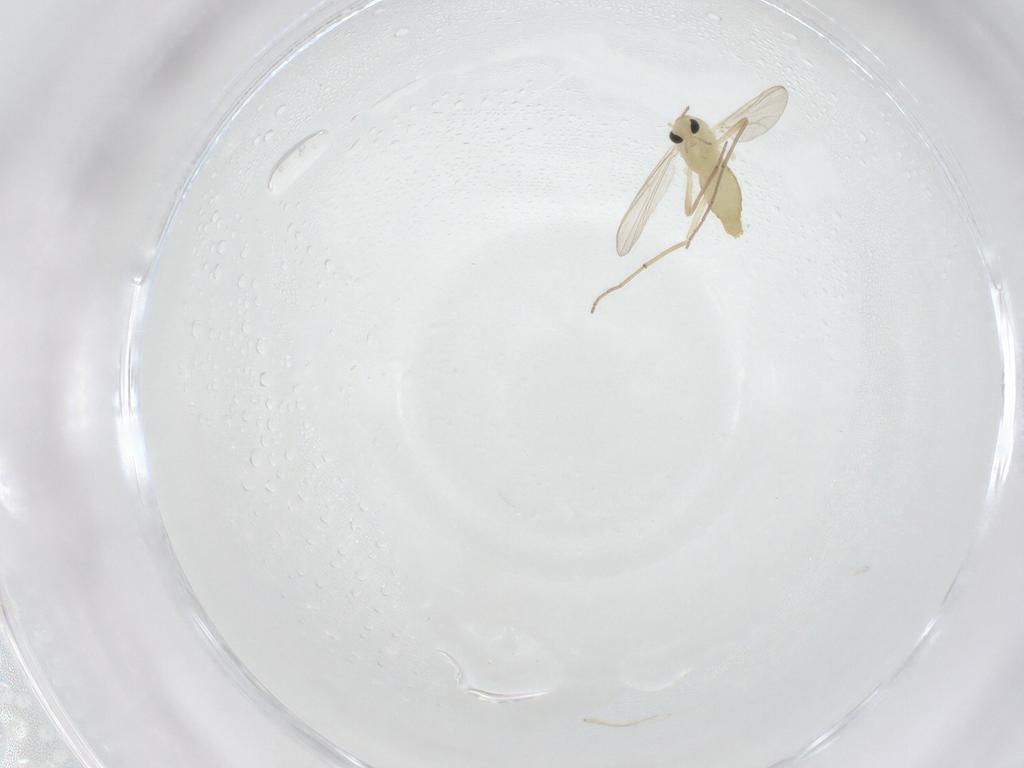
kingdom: Animalia
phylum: Arthropoda
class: Insecta
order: Diptera
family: Chironomidae
